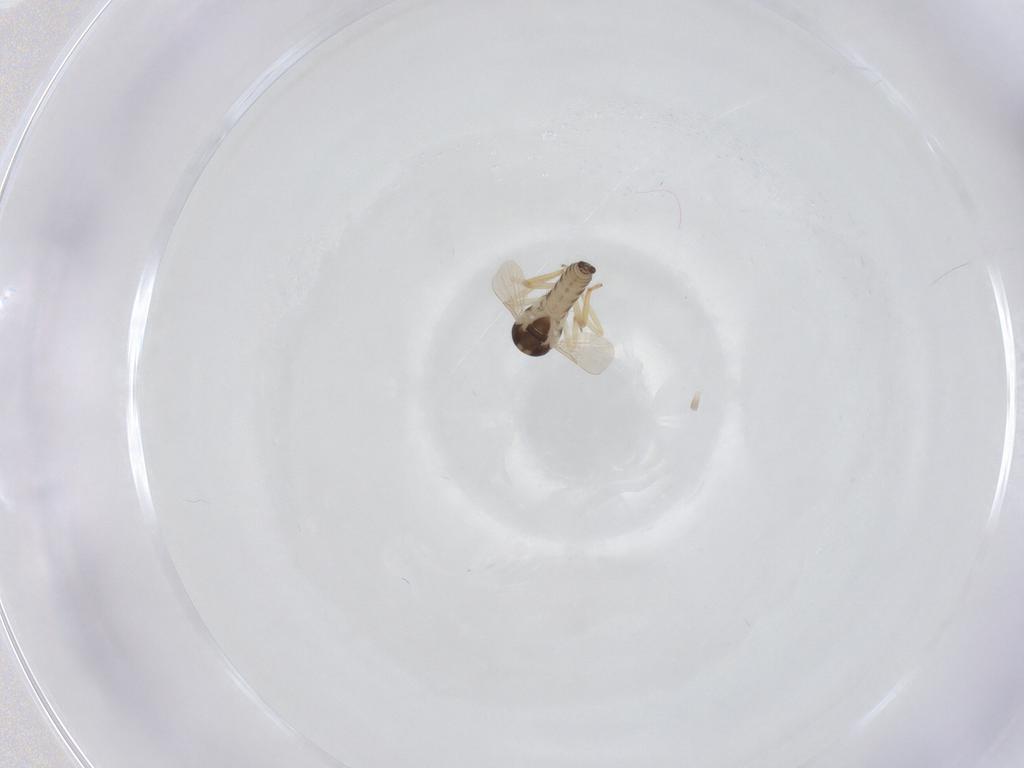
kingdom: Animalia
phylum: Arthropoda
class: Insecta
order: Diptera
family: Ceratopogonidae
